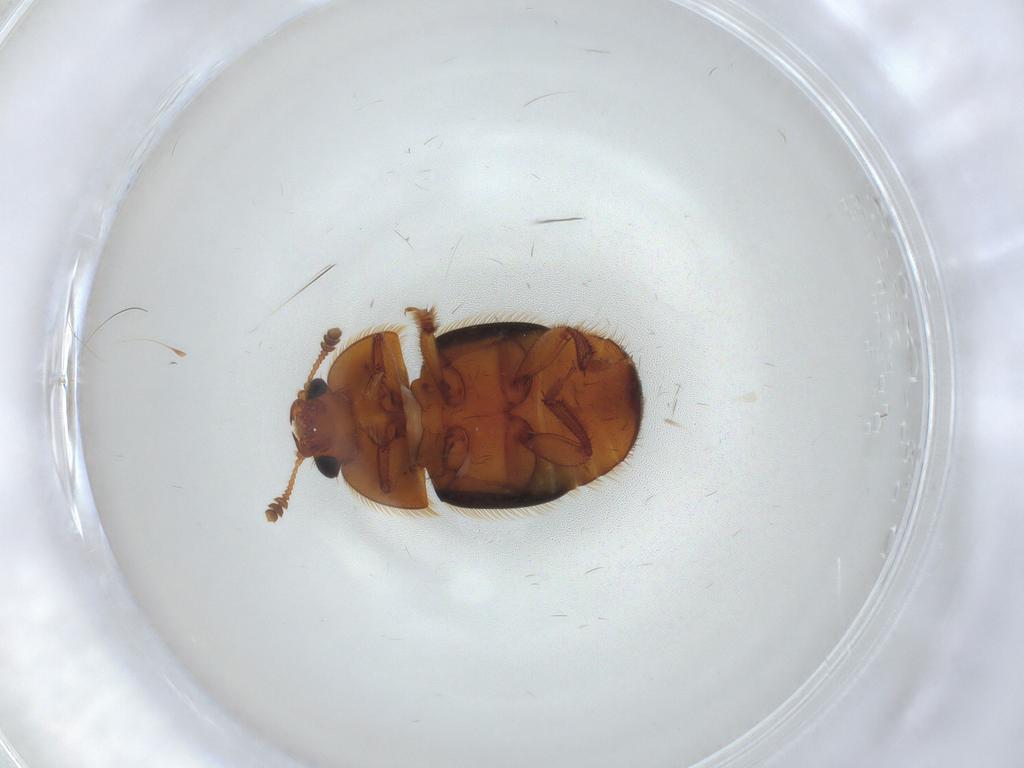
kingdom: Animalia
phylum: Arthropoda
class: Insecta
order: Coleoptera
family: Nitidulidae
